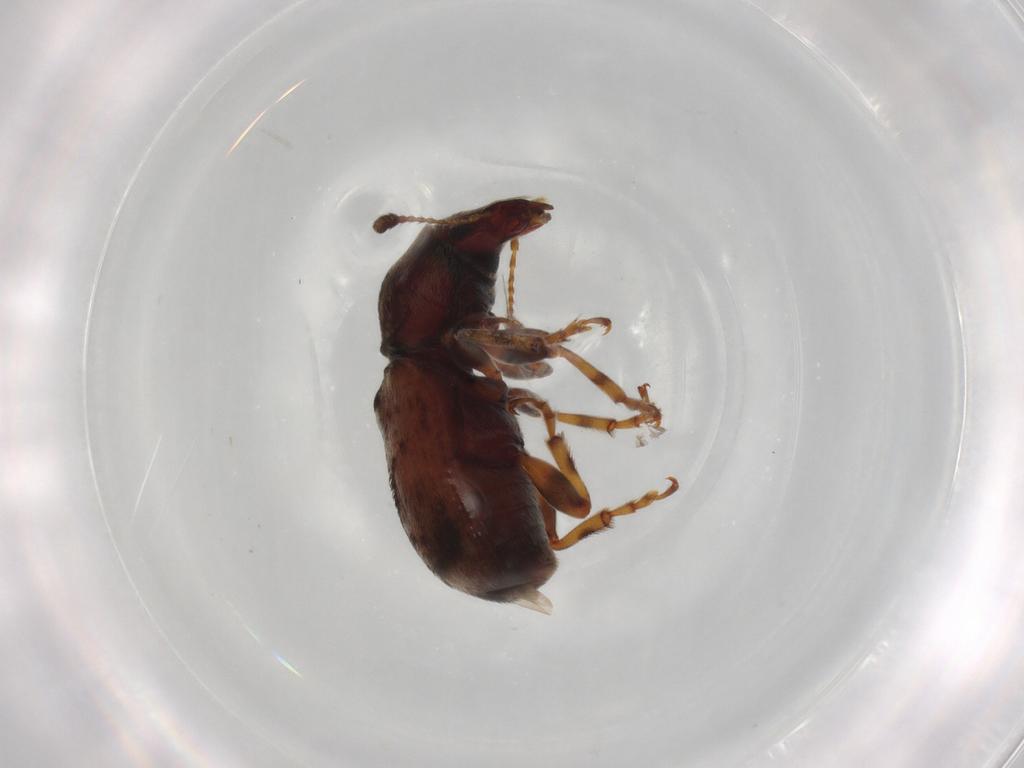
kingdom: Animalia
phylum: Arthropoda
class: Insecta
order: Coleoptera
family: Anthribidae
